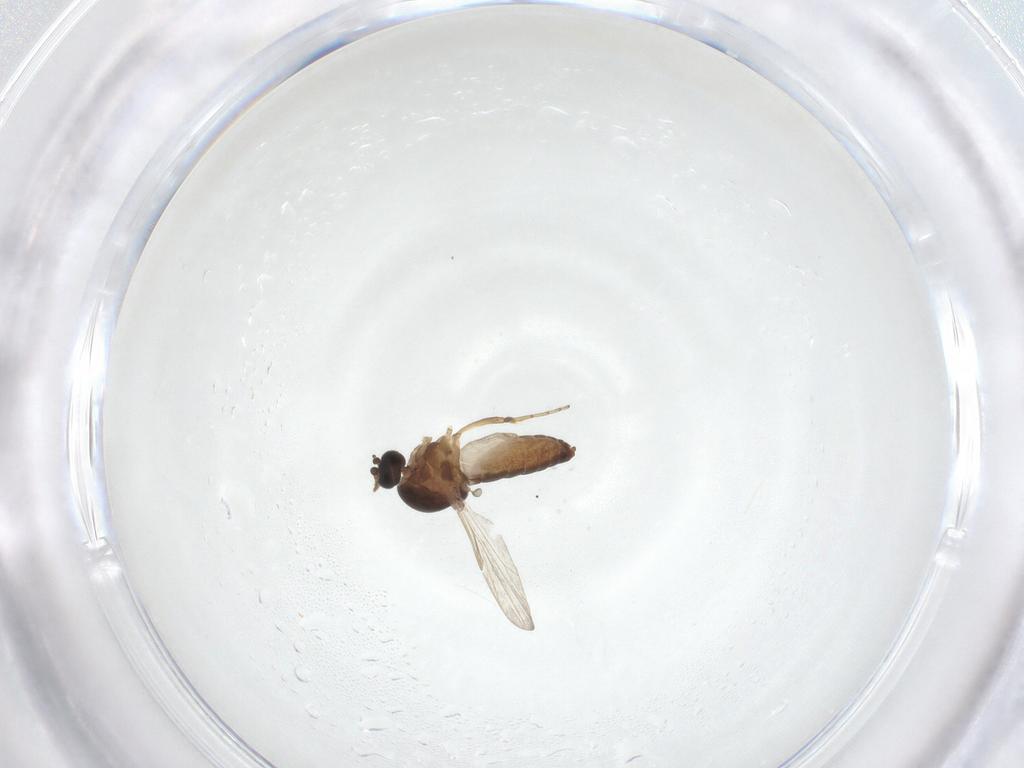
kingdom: Animalia
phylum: Arthropoda
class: Insecta
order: Diptera
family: Ceratopogonidae
